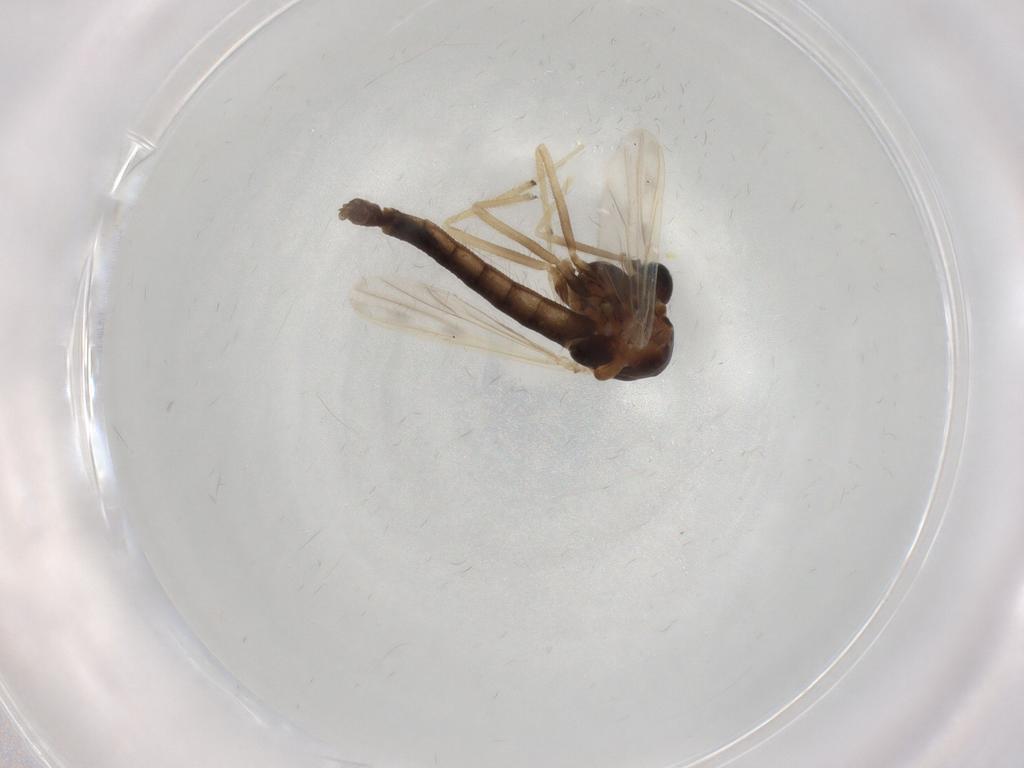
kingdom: Animalia
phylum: Arthropoda
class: Insecta
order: Diptera
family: Chironomidae
